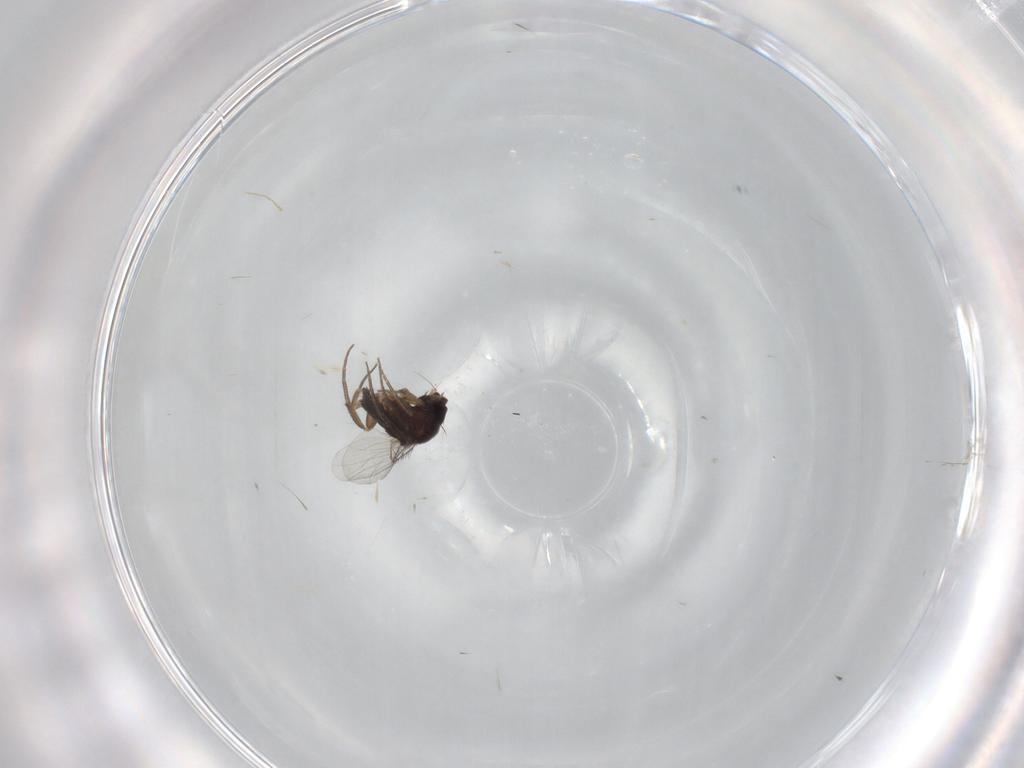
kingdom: Animalia
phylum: Arthropoda
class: Insecta
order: Diptera
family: Phoridae
